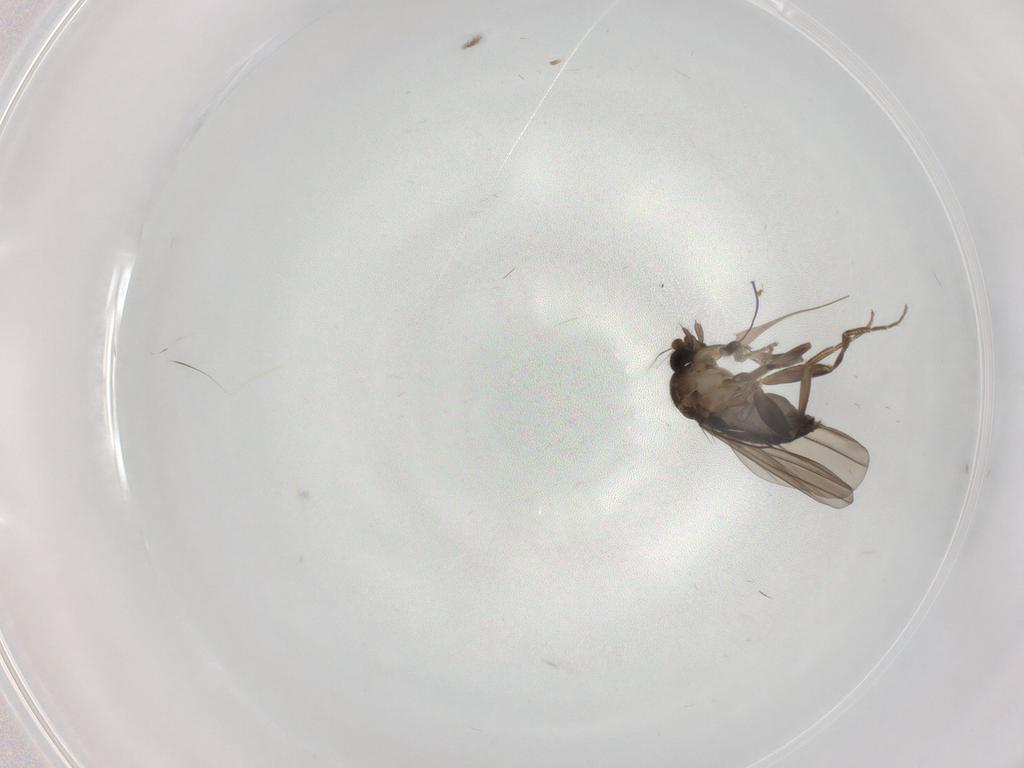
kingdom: Animalia
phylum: Arthropoda
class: Insecta
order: Diptera
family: Phoridae
